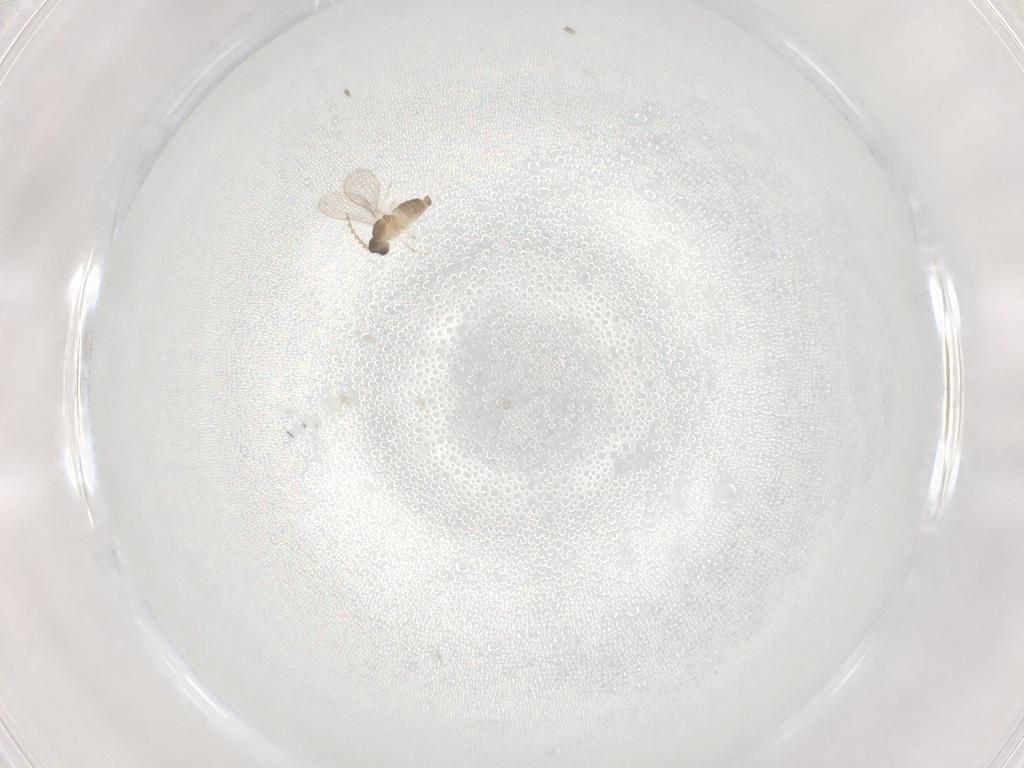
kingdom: Animalia
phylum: Arthropoda
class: Insecta
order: Diptera
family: Cecidomyiidae
